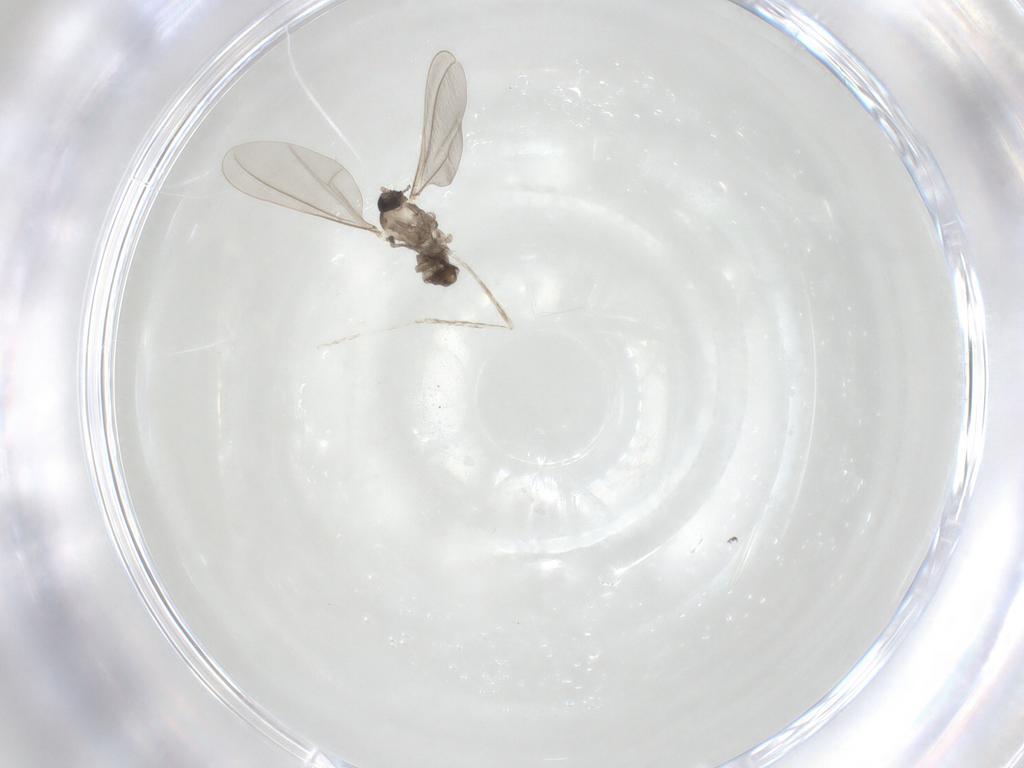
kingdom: Animalia
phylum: Arthropoda
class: Insecta
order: Diptera
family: Cecidomyiidae
